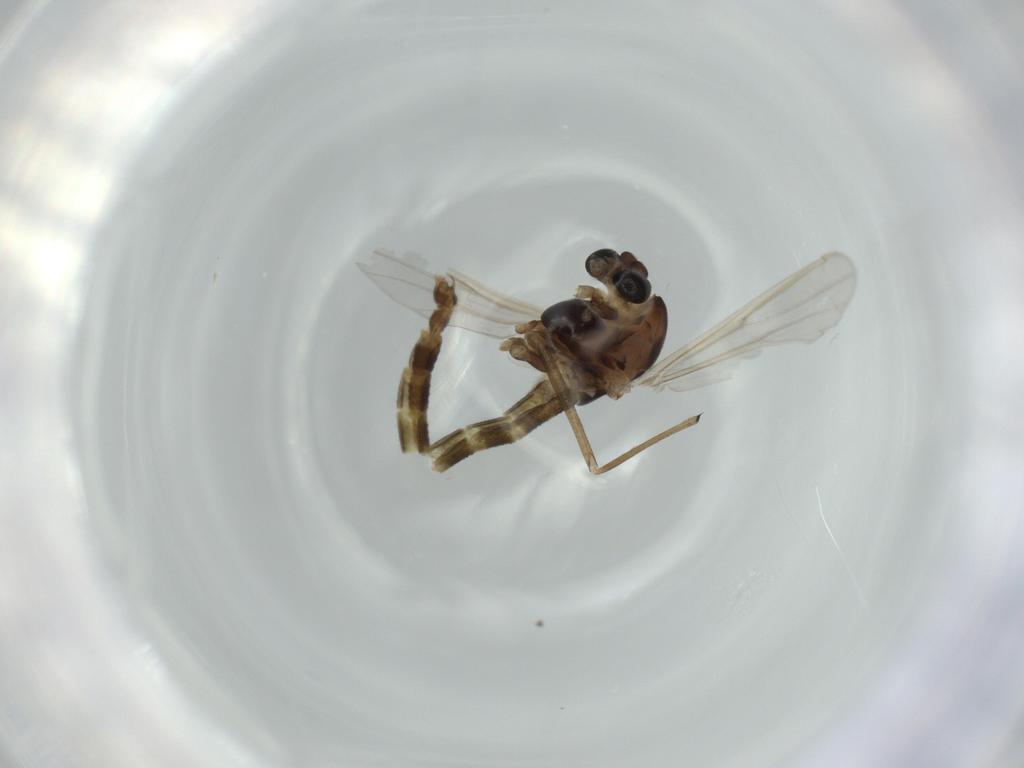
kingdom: Animalia
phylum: Arthropoda
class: Insecta
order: Diptera
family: Chironomidae
